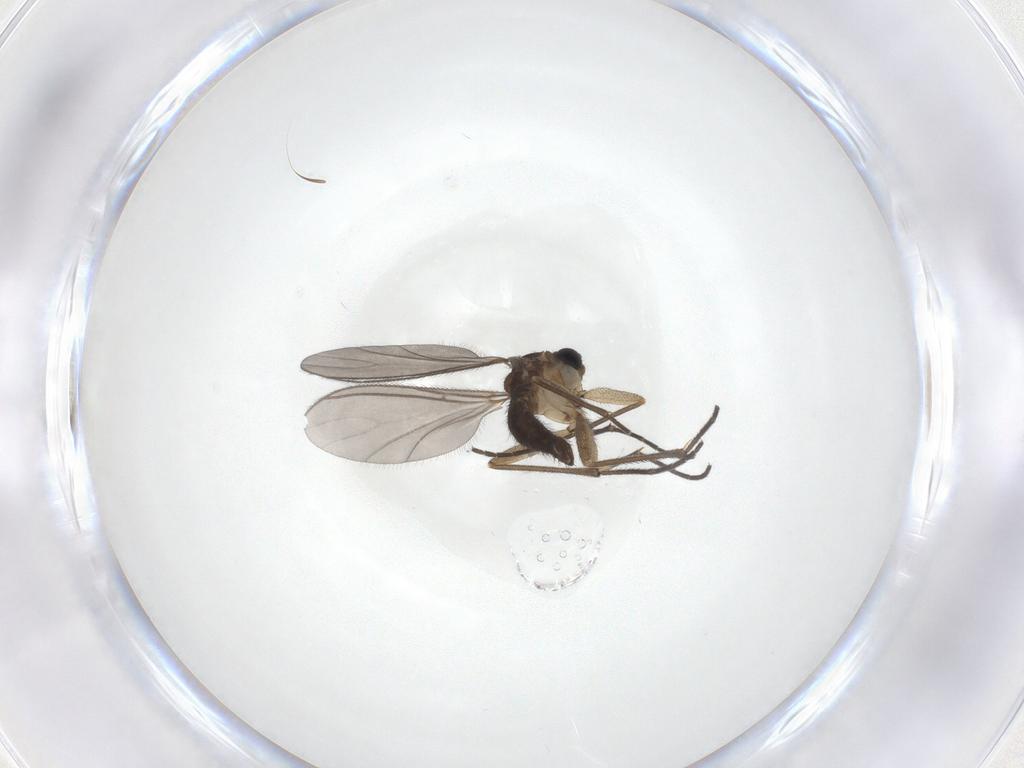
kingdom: Animalia
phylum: Arthropoda
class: Insecta
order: Diptera
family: Sciaridae
